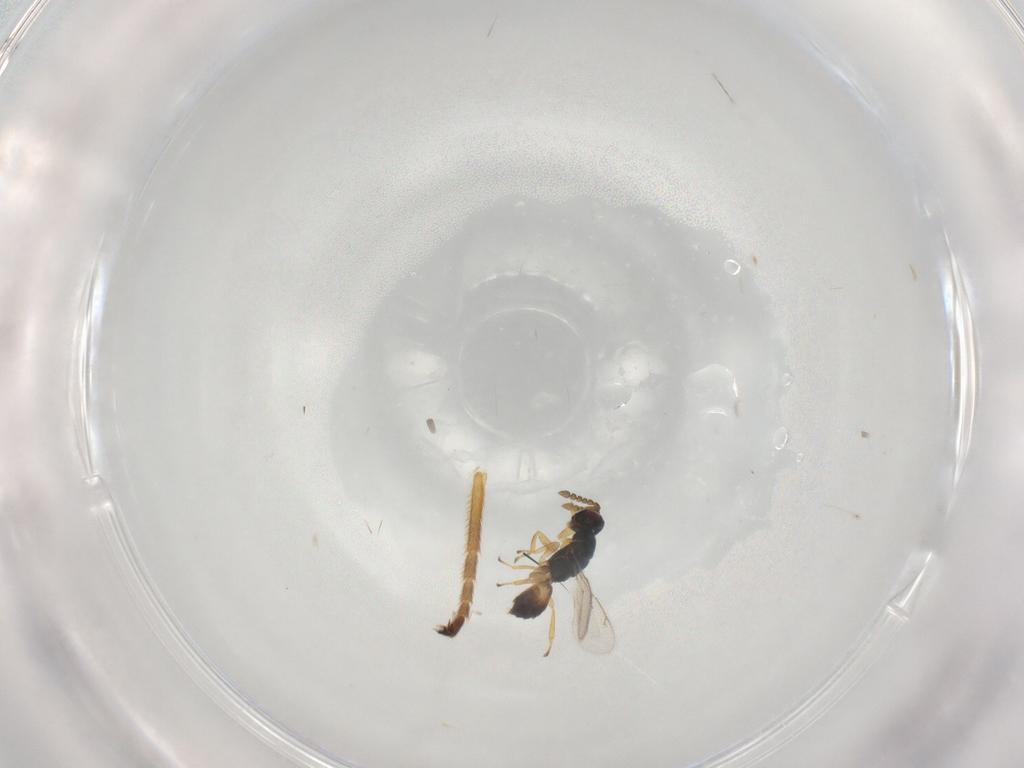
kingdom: Animalia
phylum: Arthropoda
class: Insecta
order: Hymenoptera
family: Braconidae
